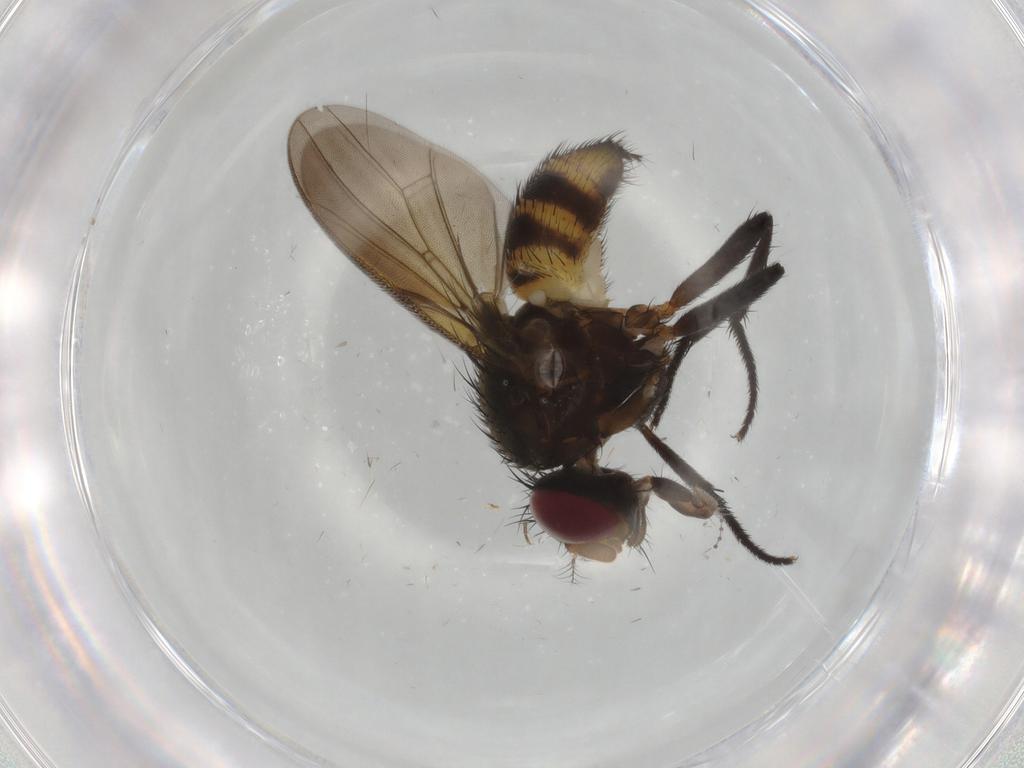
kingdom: Animalia
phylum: Arthropoda
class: Insecta
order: Diptera
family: Anthomyiidae
